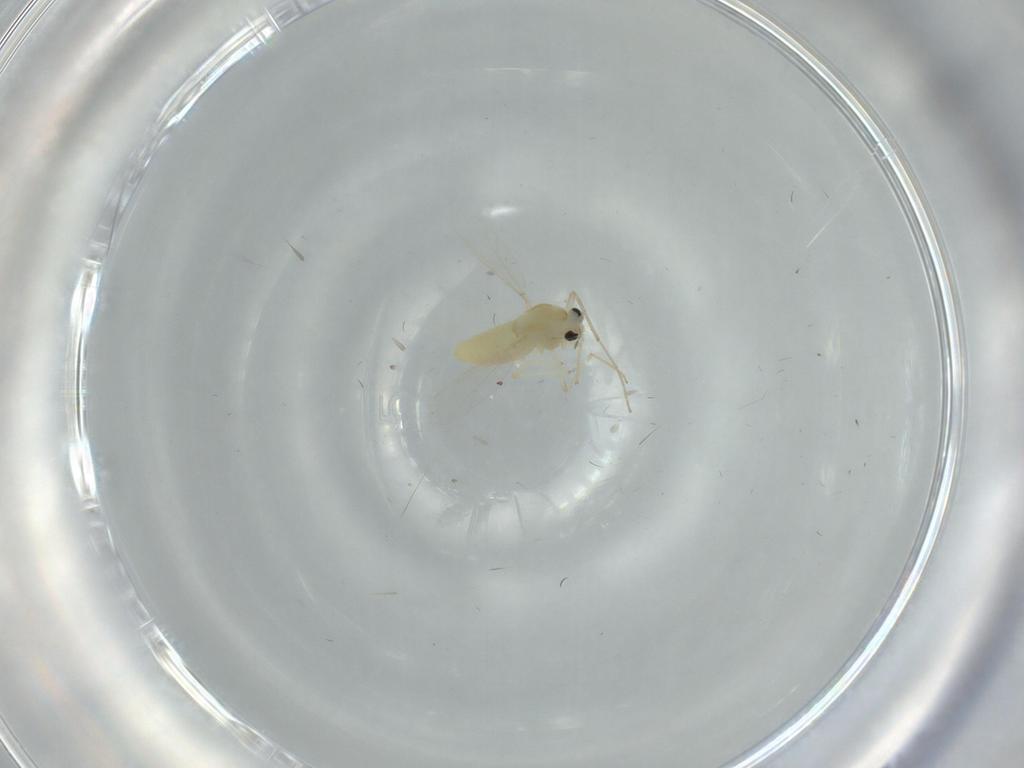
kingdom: Animalia
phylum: Arthropoda
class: Insecta
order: Diptera
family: Chironomidae
